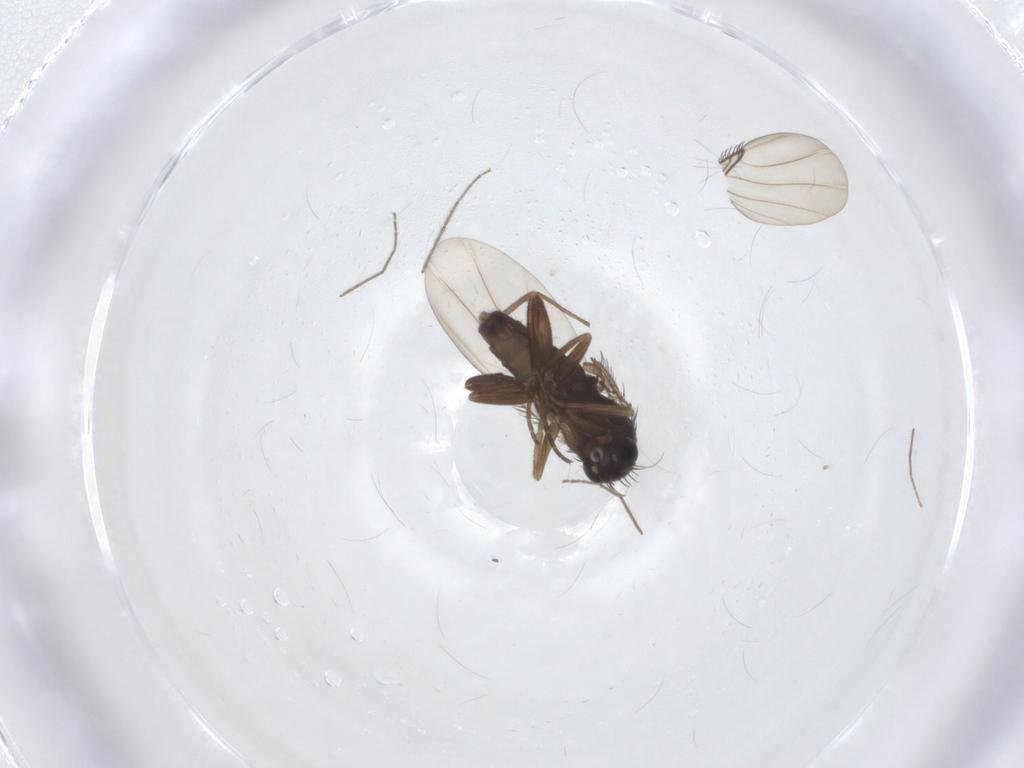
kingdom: Animalia
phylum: Arthropoda
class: Insecta
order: Diptera
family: Phoridae
